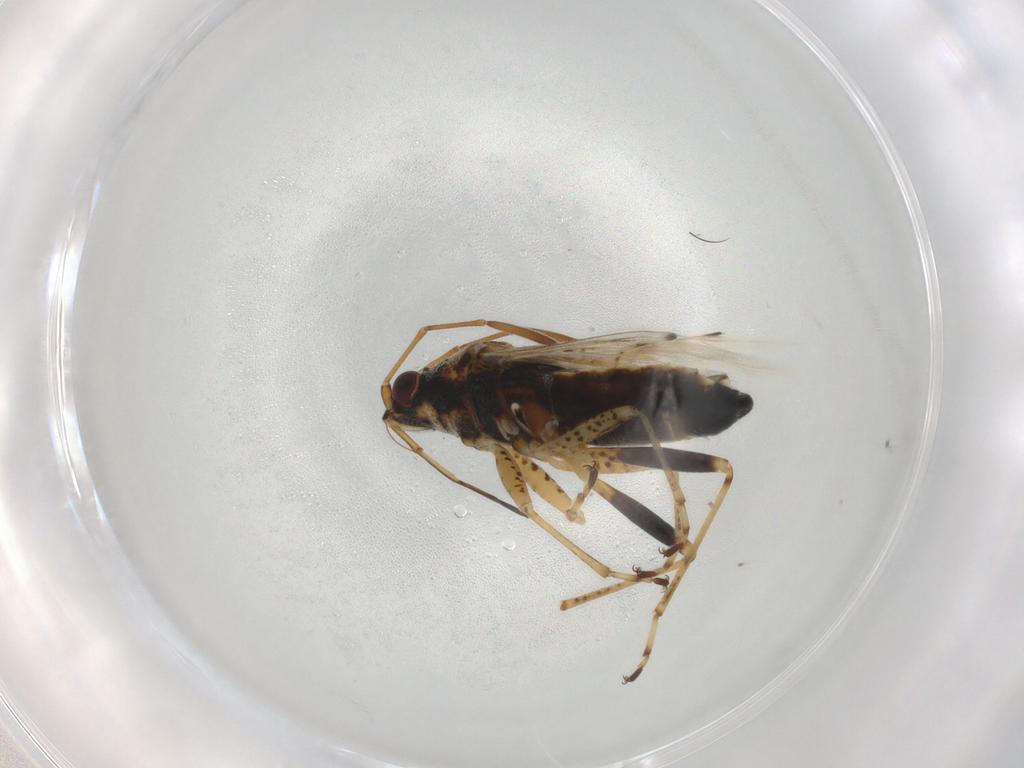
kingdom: Animalia
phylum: Arthropoda
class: Insecta
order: Hemiptera
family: Lygaeidae
